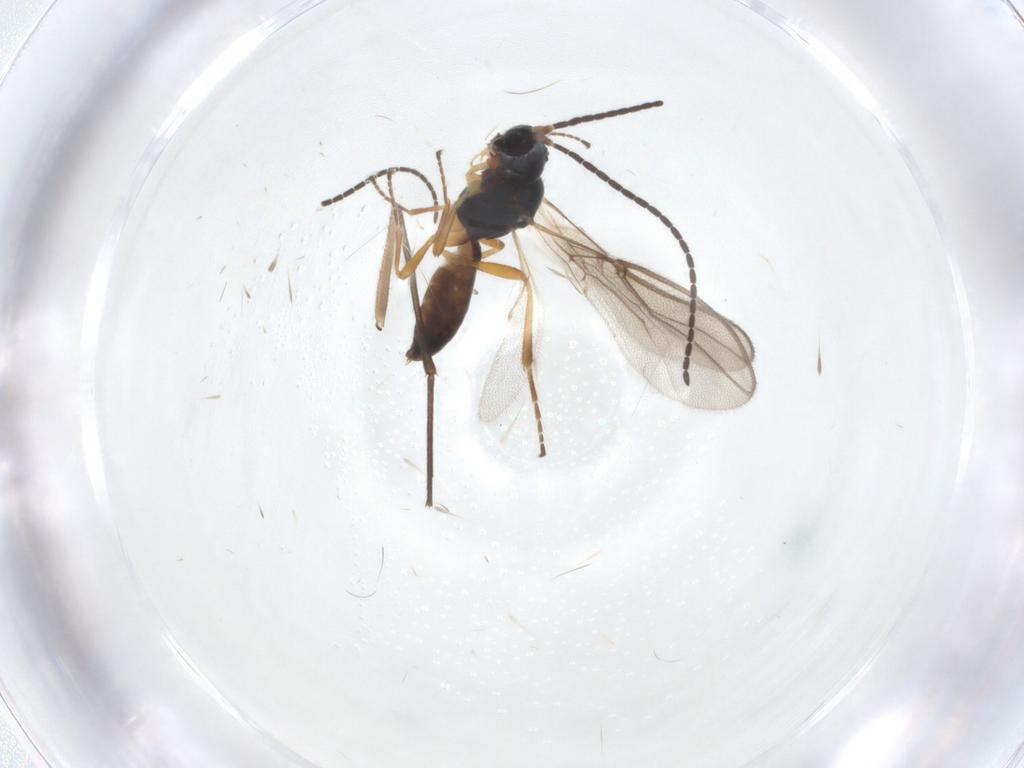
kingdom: Animalia
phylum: Arthropoda
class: Insecta
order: Hymenoptera
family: Braconidae
